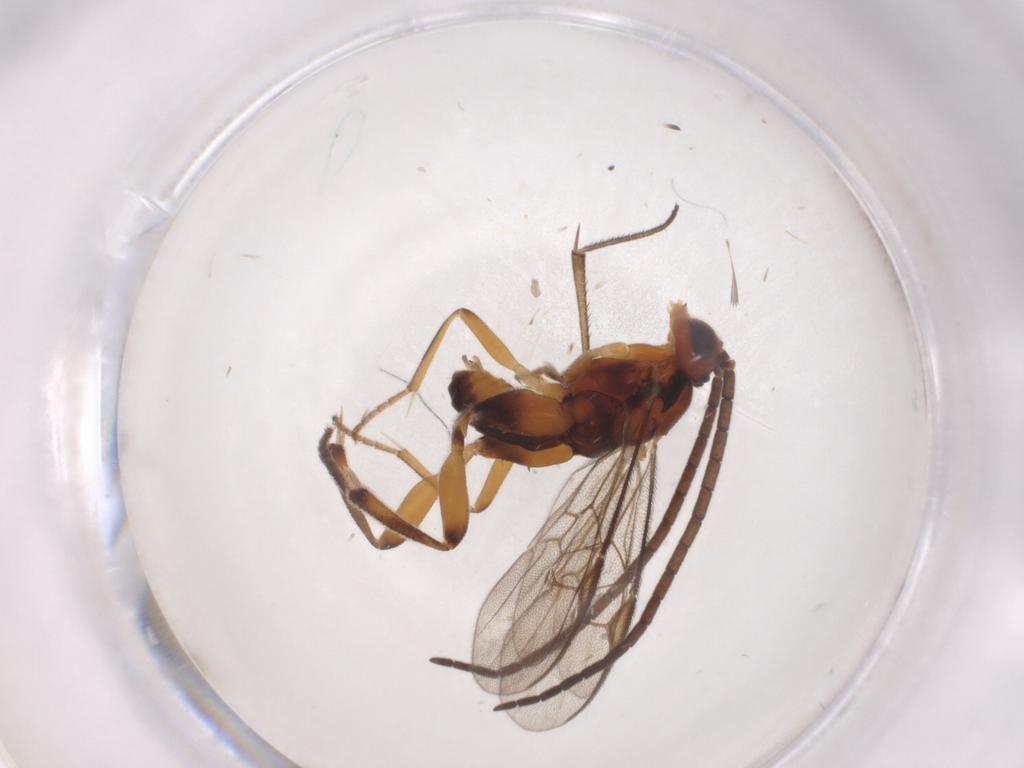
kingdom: Animalia
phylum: Arthropoda
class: Insecta
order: Hymenoptera
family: Braconidae
